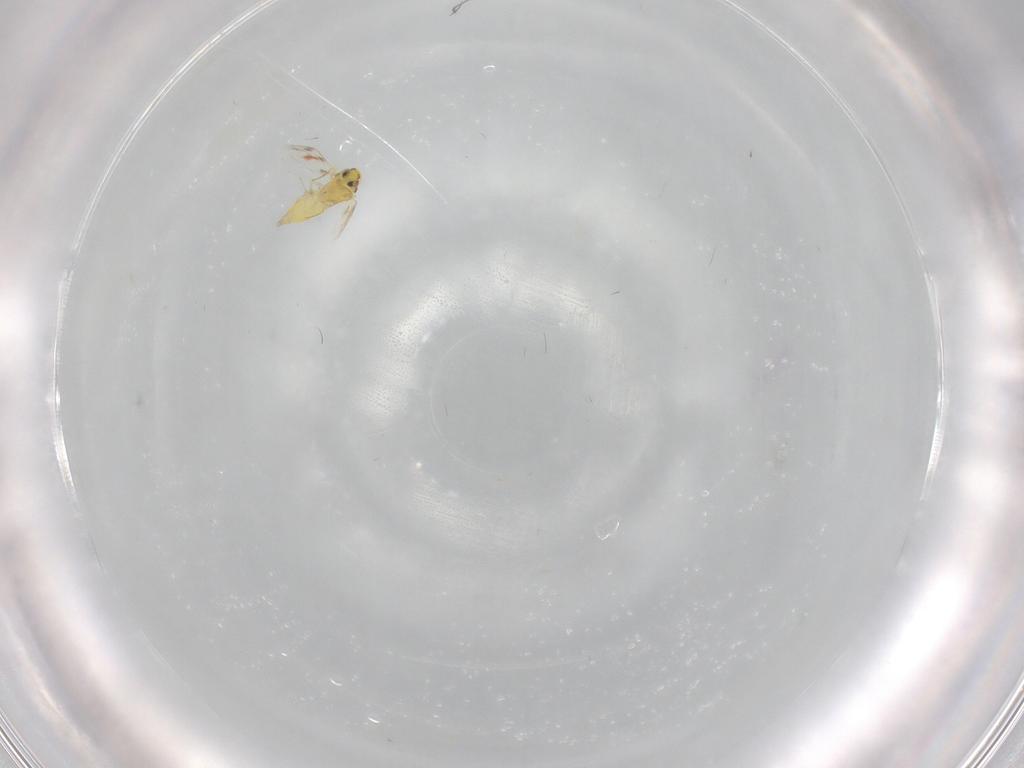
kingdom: Animalia
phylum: Arthropoda
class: Insecta
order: Hemiptera
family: Aleyrodidae
